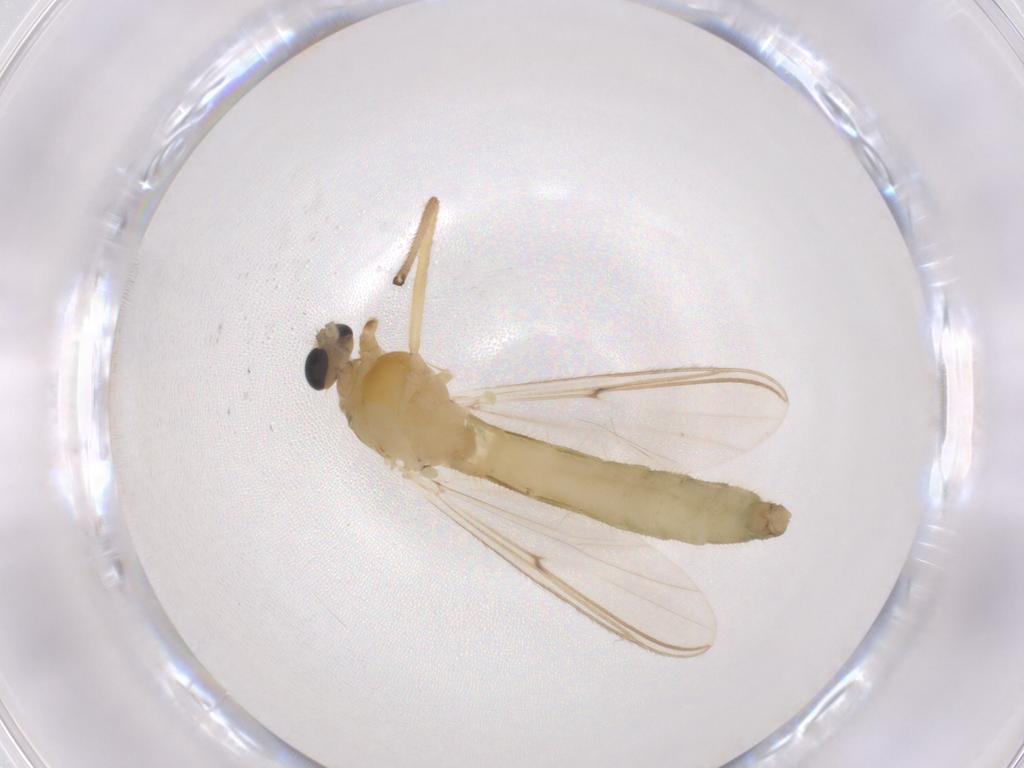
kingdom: Animalia
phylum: Arthropoda
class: Insecta
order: Diptera
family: Chironomidae
